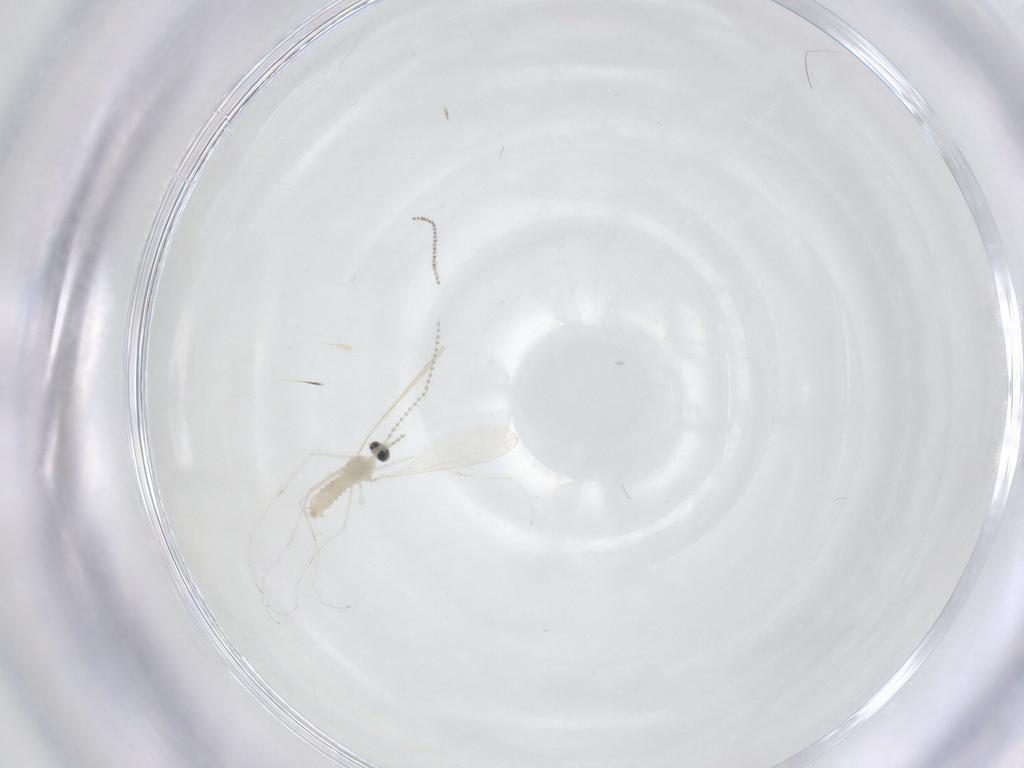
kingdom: Animalia
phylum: Arthropoda
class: Insecta
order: Diptera
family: Cecidomyiidae
